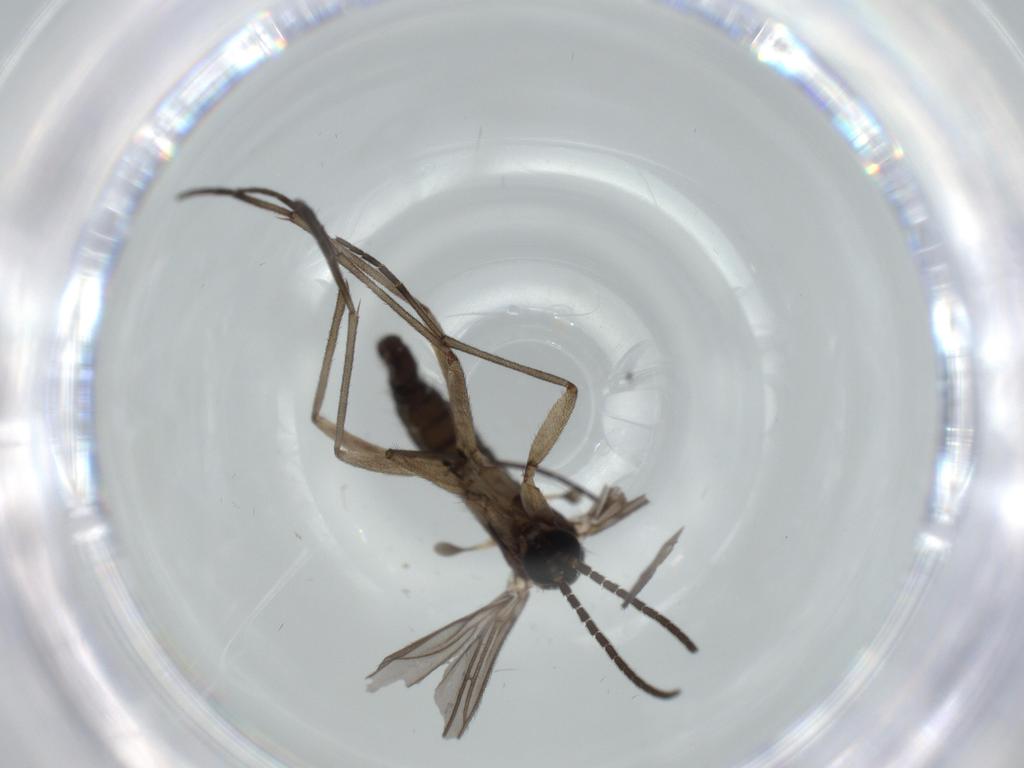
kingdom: Animalia
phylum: Arthropoda
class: Insecta
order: Diptera
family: Sciaridae
